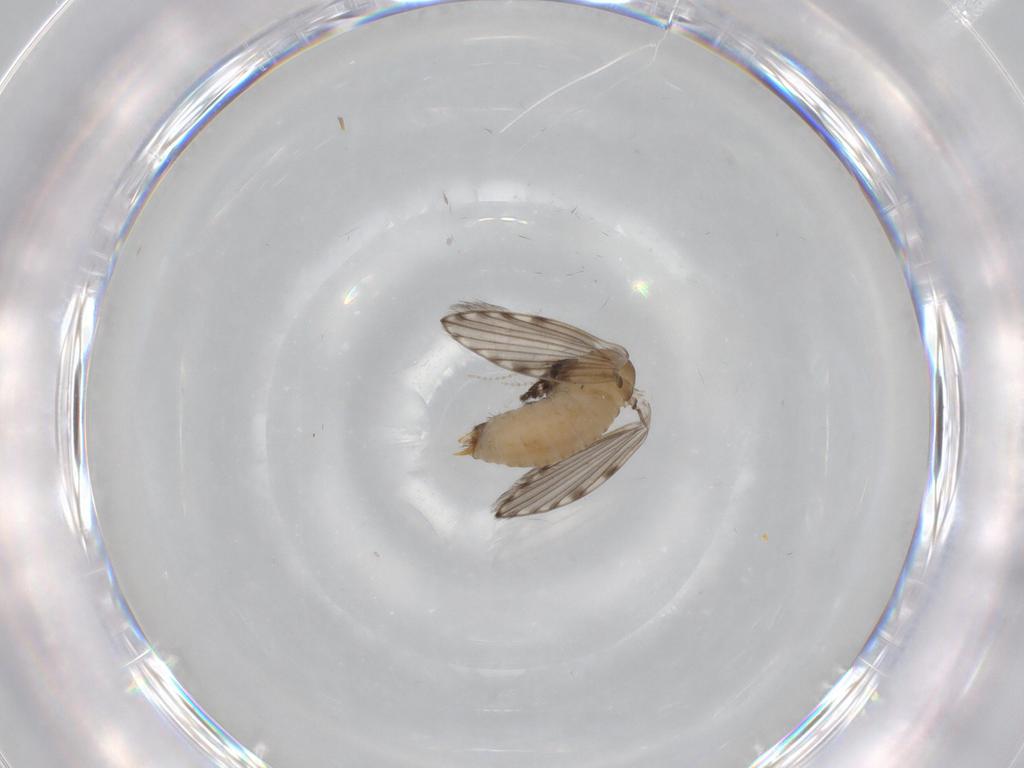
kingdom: Animalia
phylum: Arthropoda
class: Insecta
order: Diptera
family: Psychodidae
